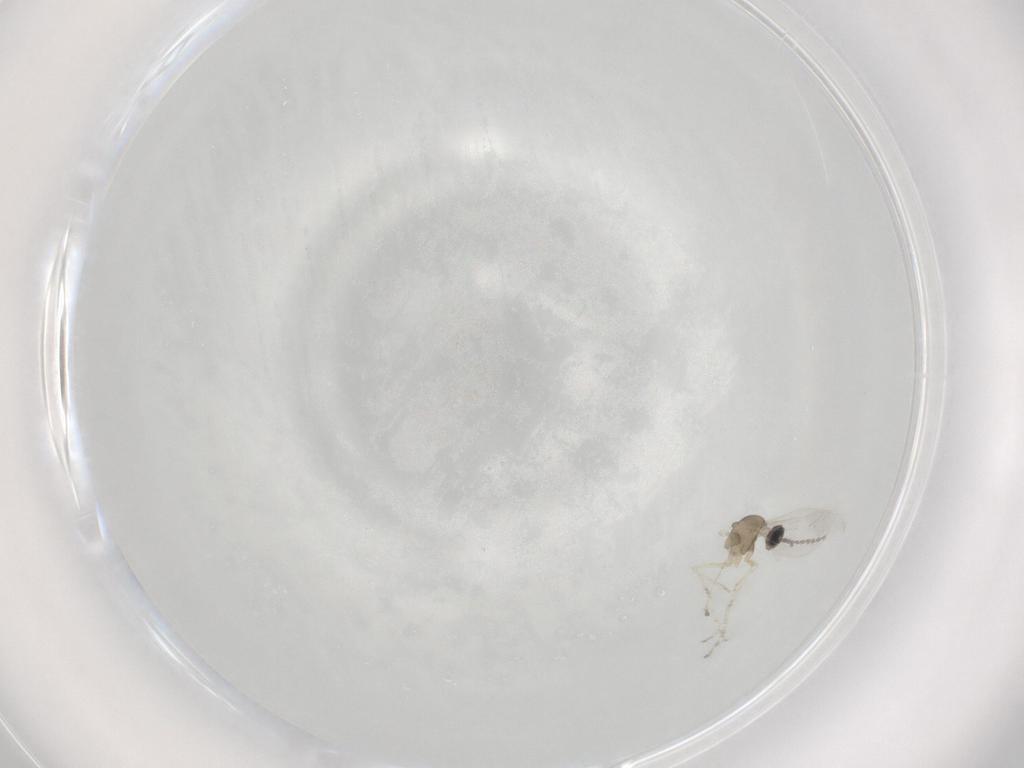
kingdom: Animalia
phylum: Arthropoda
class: Insecta
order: Diptera
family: Cecidomyiidae
